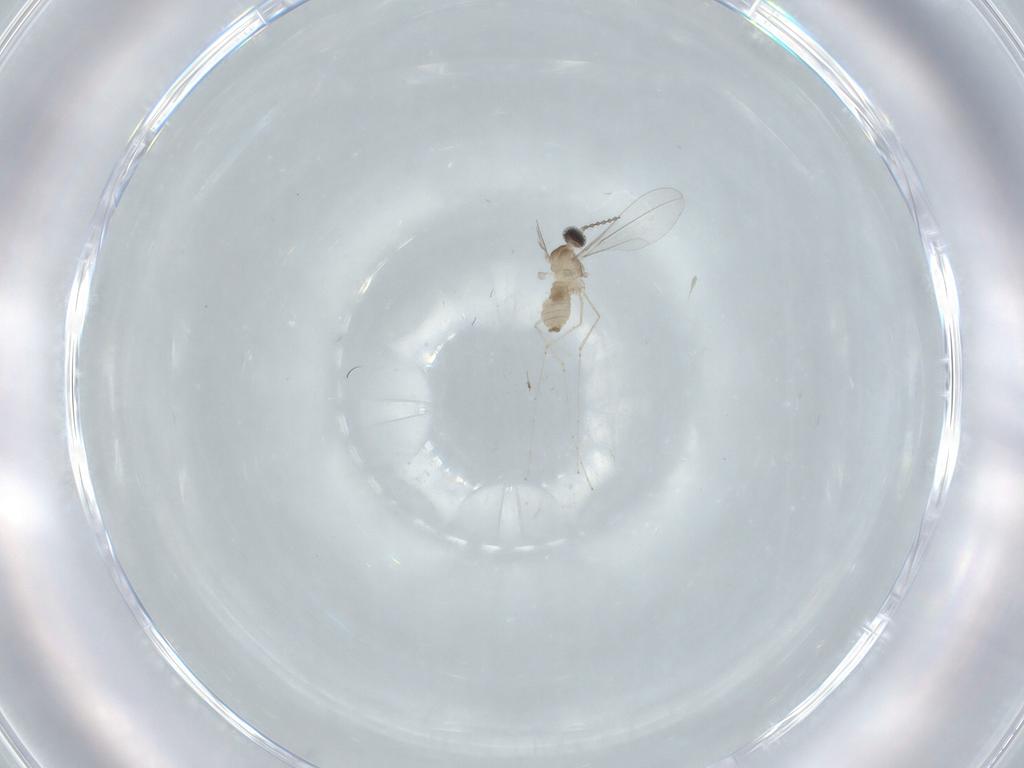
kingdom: Animalia
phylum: Arthropoda
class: Insecta
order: Diptera
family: Cecidomyiidae
